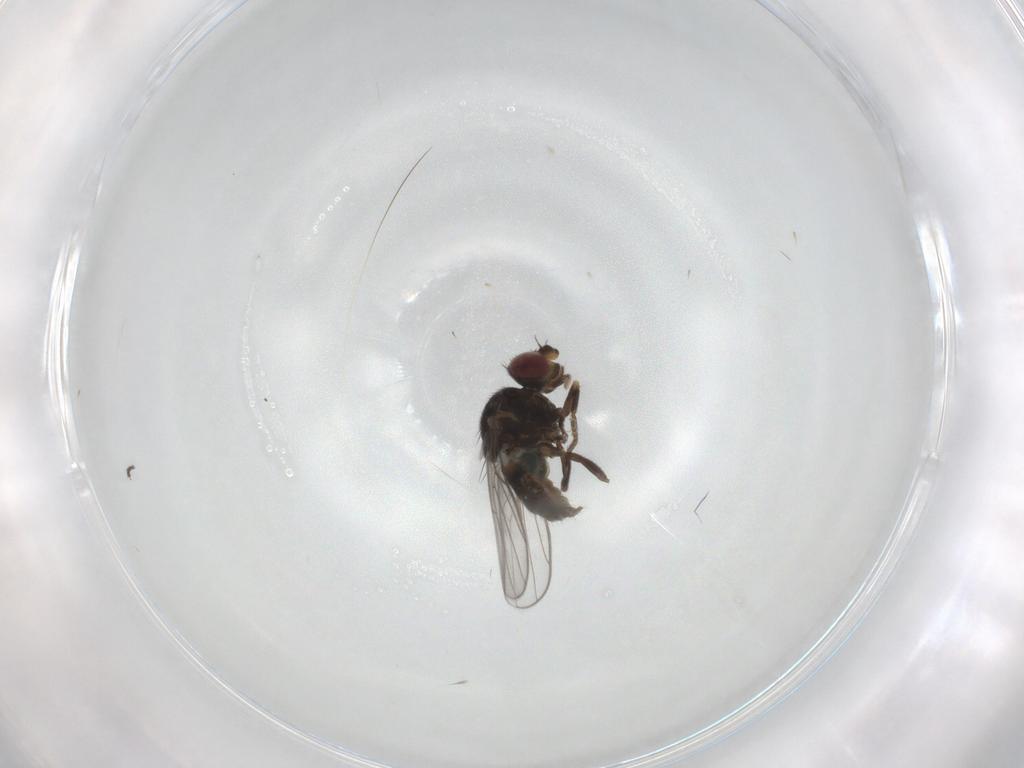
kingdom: Animalia
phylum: Arthropoda
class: Insecta
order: Diptera
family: Chloropidae
